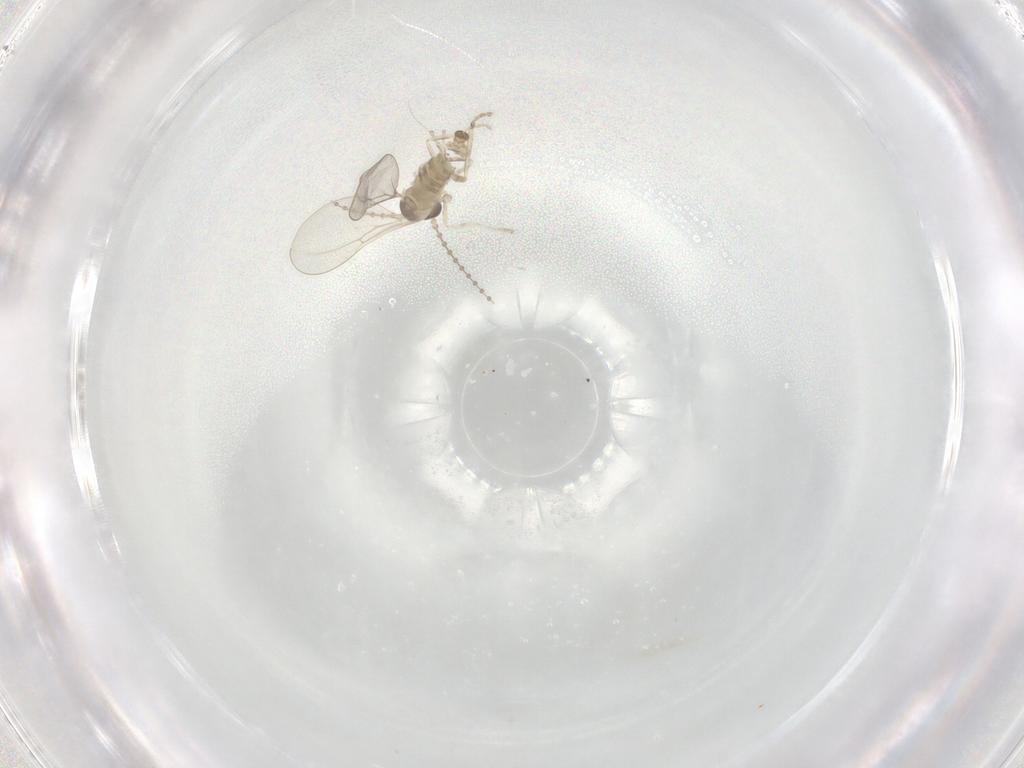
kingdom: Animalia
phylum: Arthropoda
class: Insecta
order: Diptera
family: Cecidomyiidae
